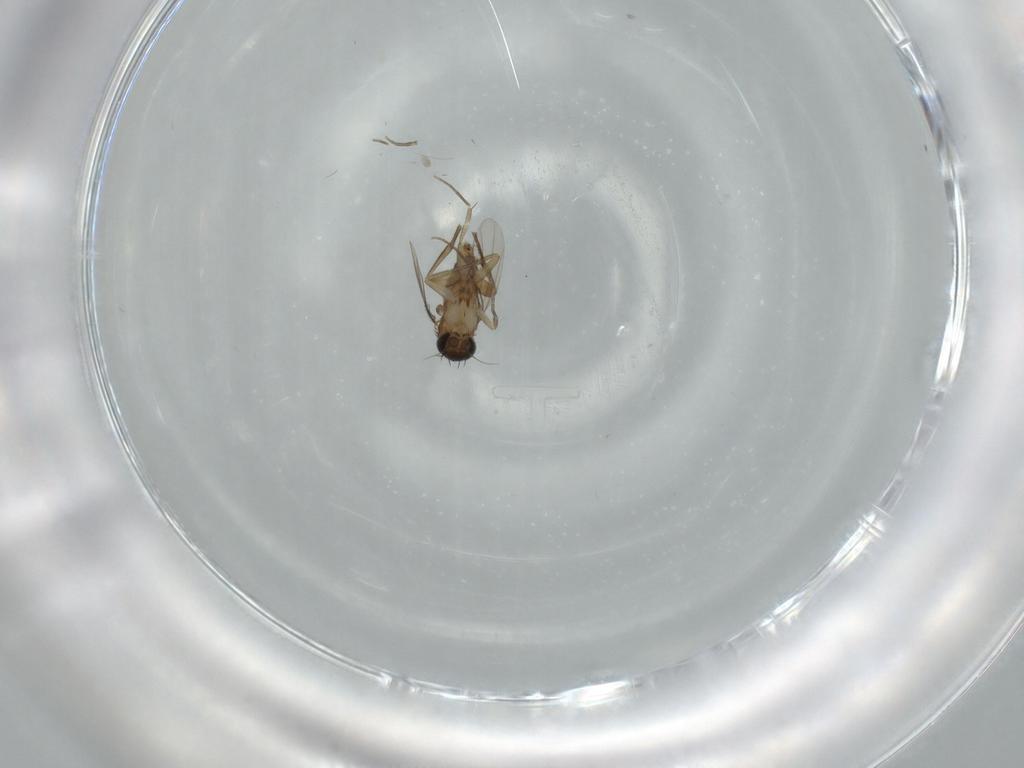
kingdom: Animalia
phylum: Arthropoda
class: Insecta
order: Diptera
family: Phoridae
